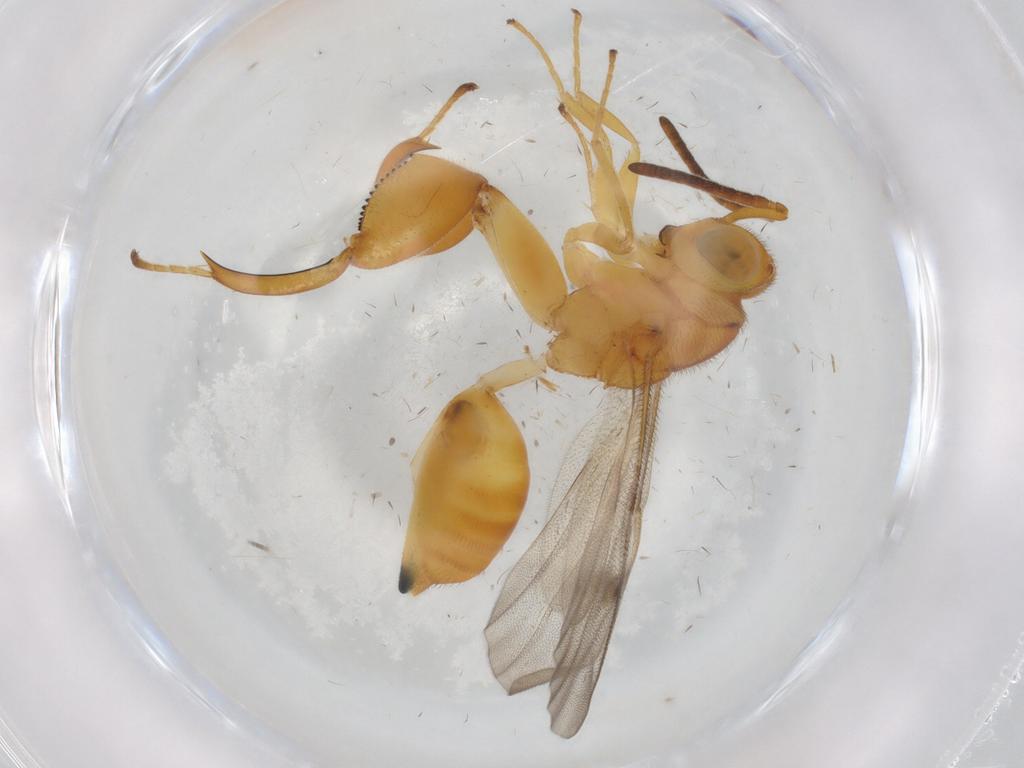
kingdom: Animalia
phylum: Arthropoda
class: Insecta
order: Hymenoptera
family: Chalcididae
